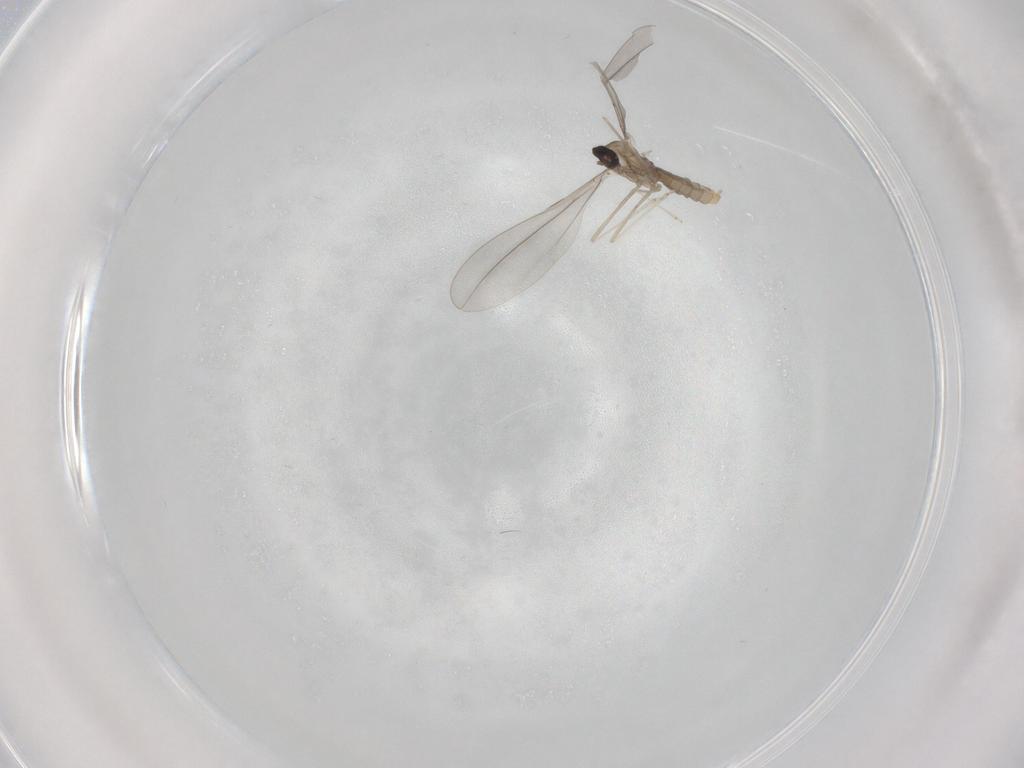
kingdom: Animalia
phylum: Arthropoda
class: Insecta
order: Diptera
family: Cecidomyiidae
